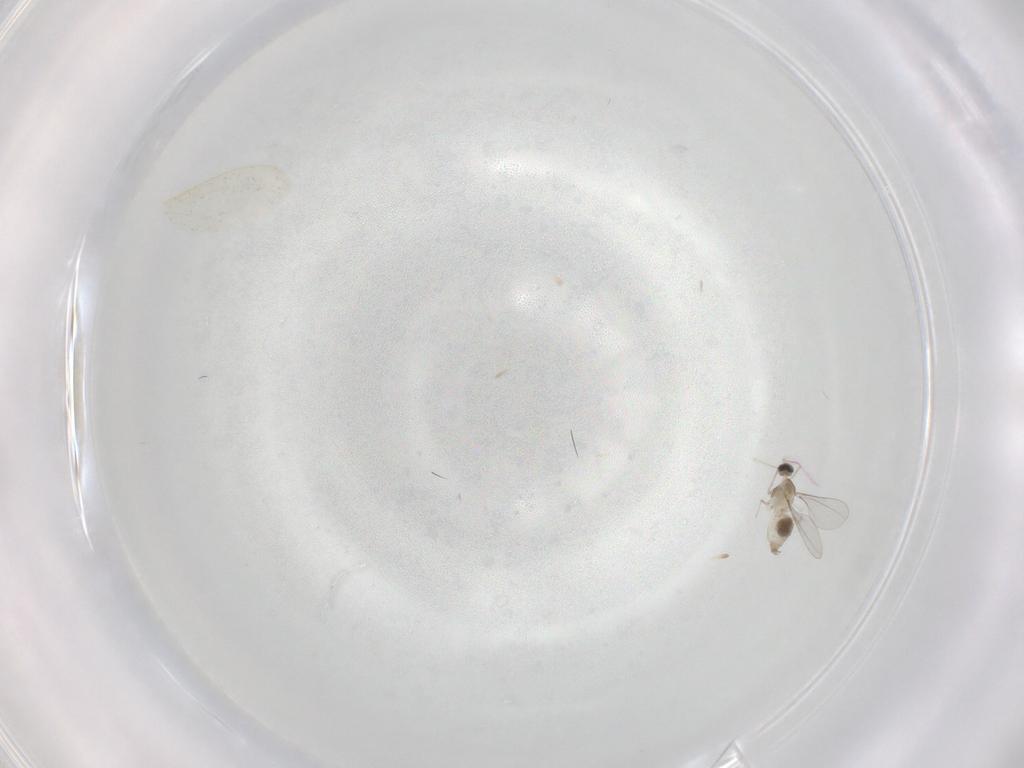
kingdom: Animalia
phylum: Arthropoda
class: Insecta
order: Diptera
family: Cecidomyiidae
